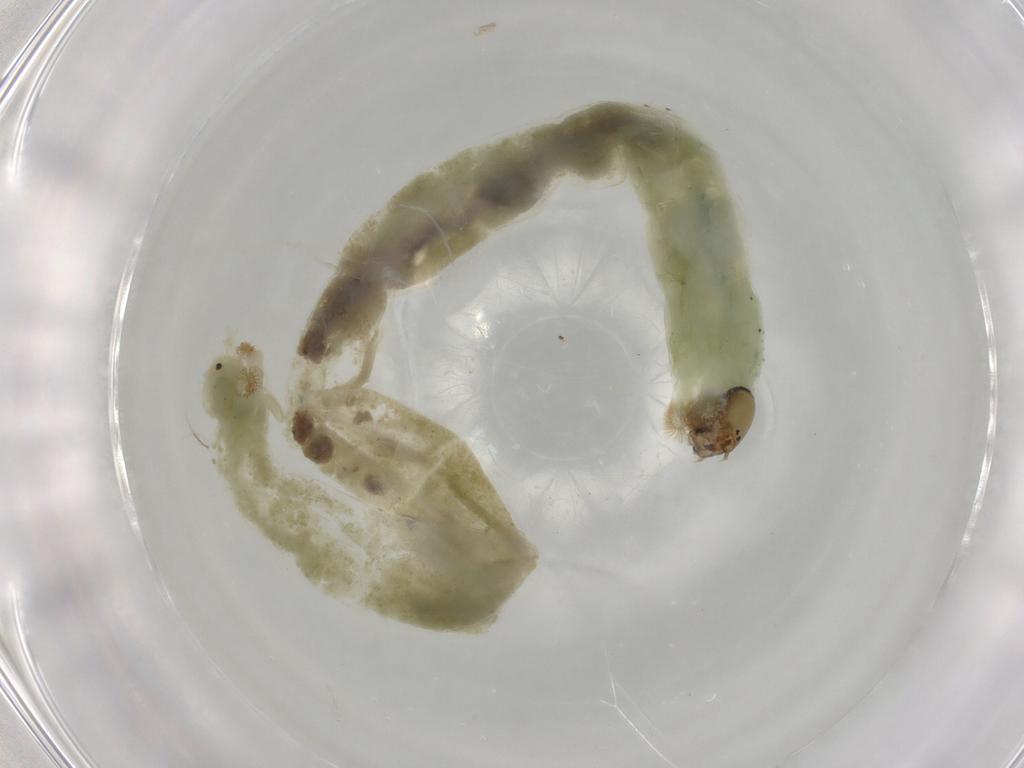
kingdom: Animalia
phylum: Arthropoda
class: Insecta
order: Diptera
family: Chironomidae
